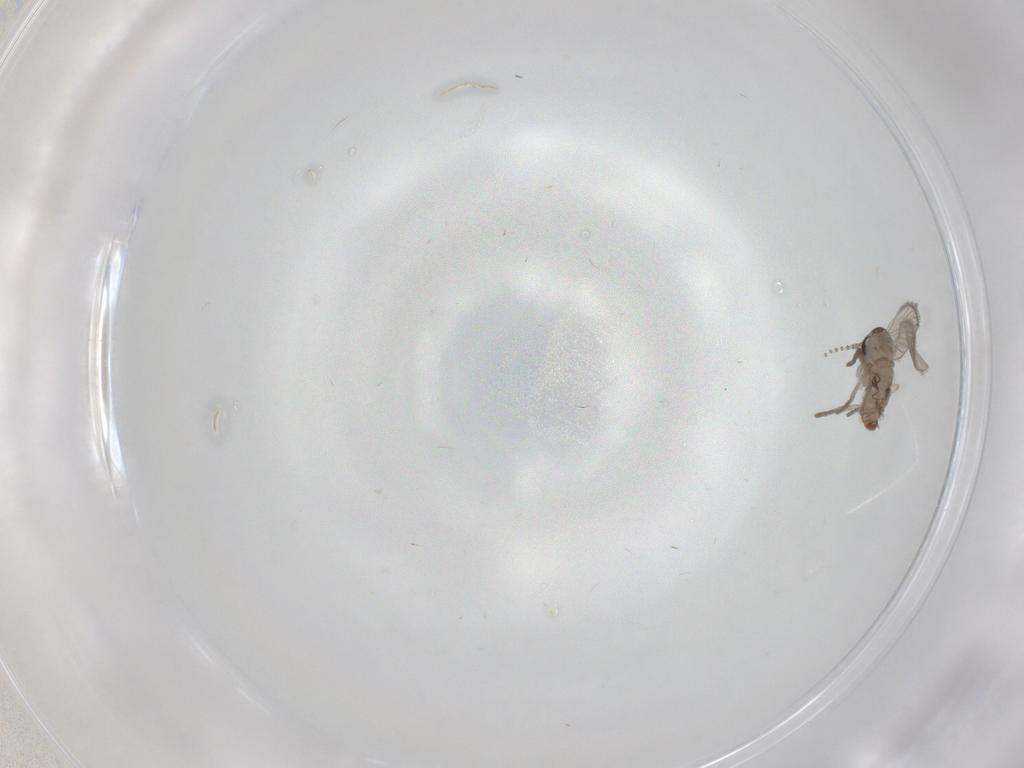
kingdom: Animalia
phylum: Arthropoda
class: Insecta
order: Diptera
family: Psychodidae
